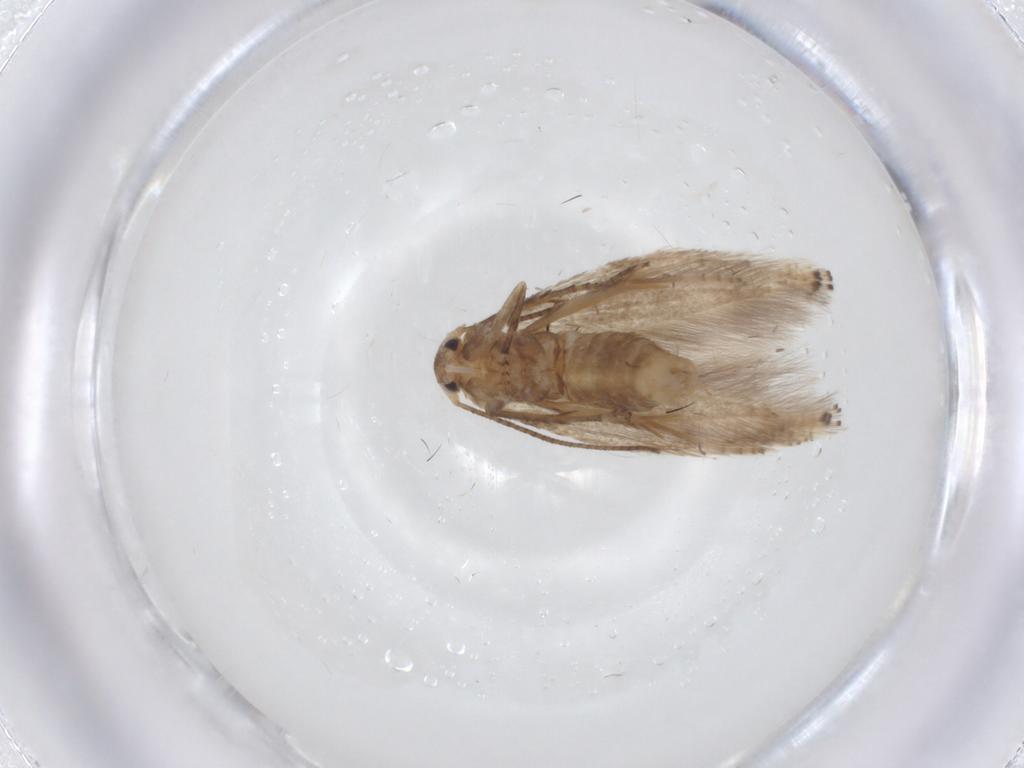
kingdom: Animalia
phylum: Arthropoda
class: Insecta
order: Lepidoptera
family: Bucculatricidae
